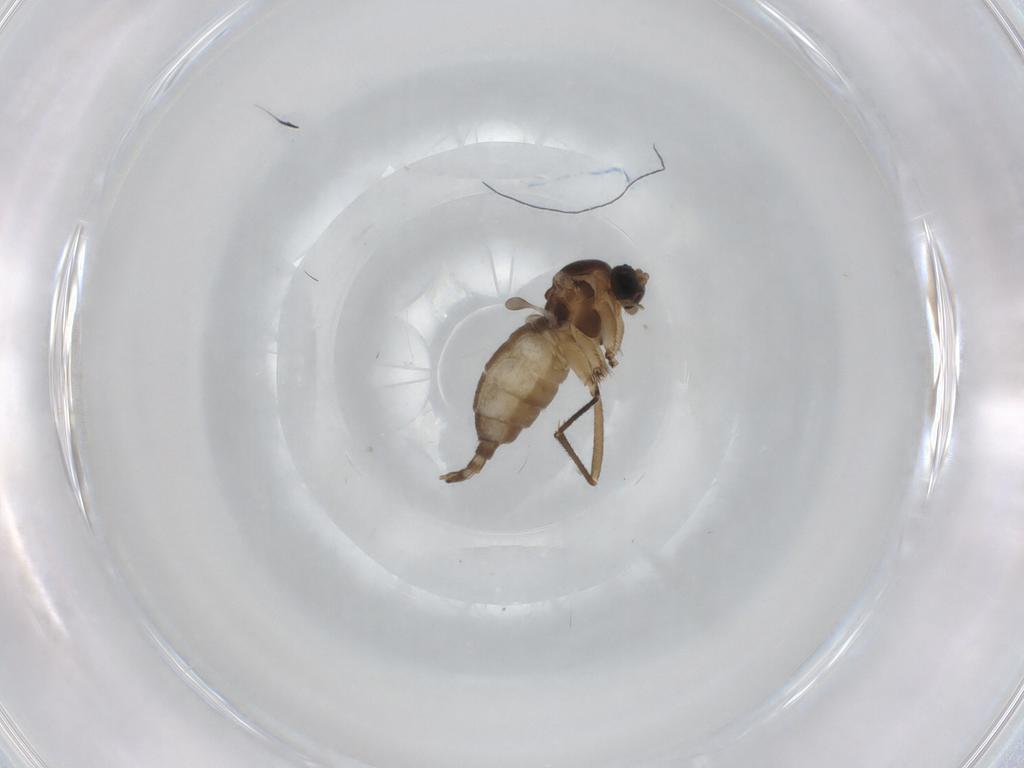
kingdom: Animalia
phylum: Arthropoda
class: Insecta
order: Diptera
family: Sciaridae
